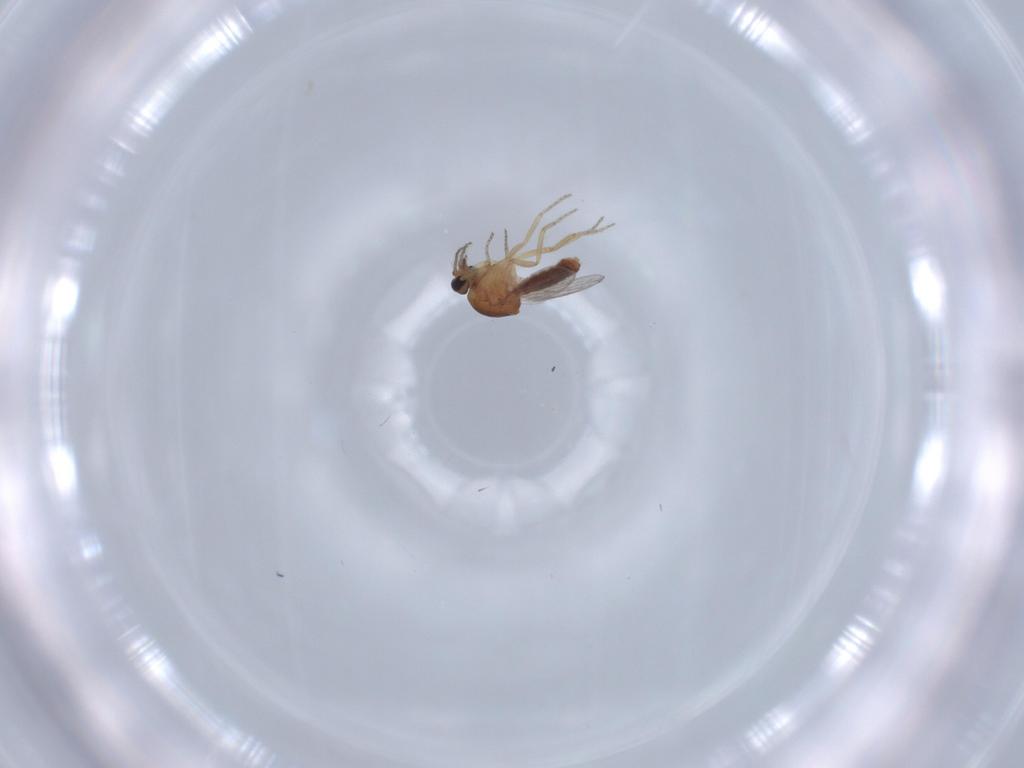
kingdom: Animalia
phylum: Arthropoda
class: Insecta
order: Diptera
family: Ceratopogonidae
